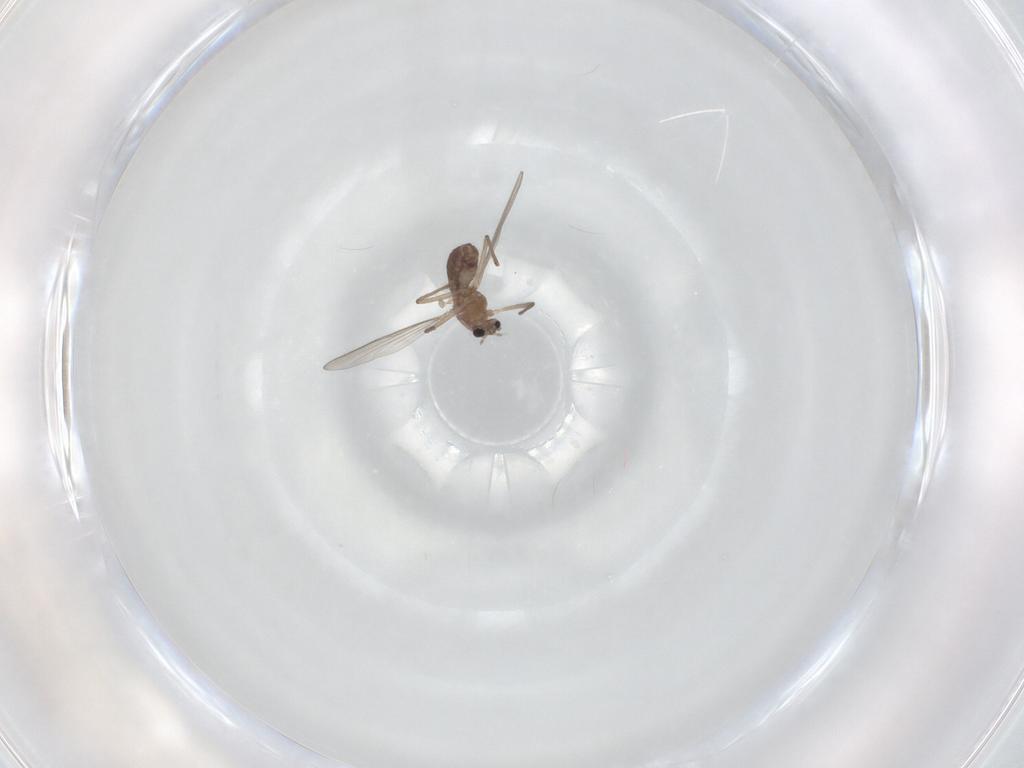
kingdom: Animalia
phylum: Arthropoda
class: Insecta
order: Diptera
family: Chironomidae
